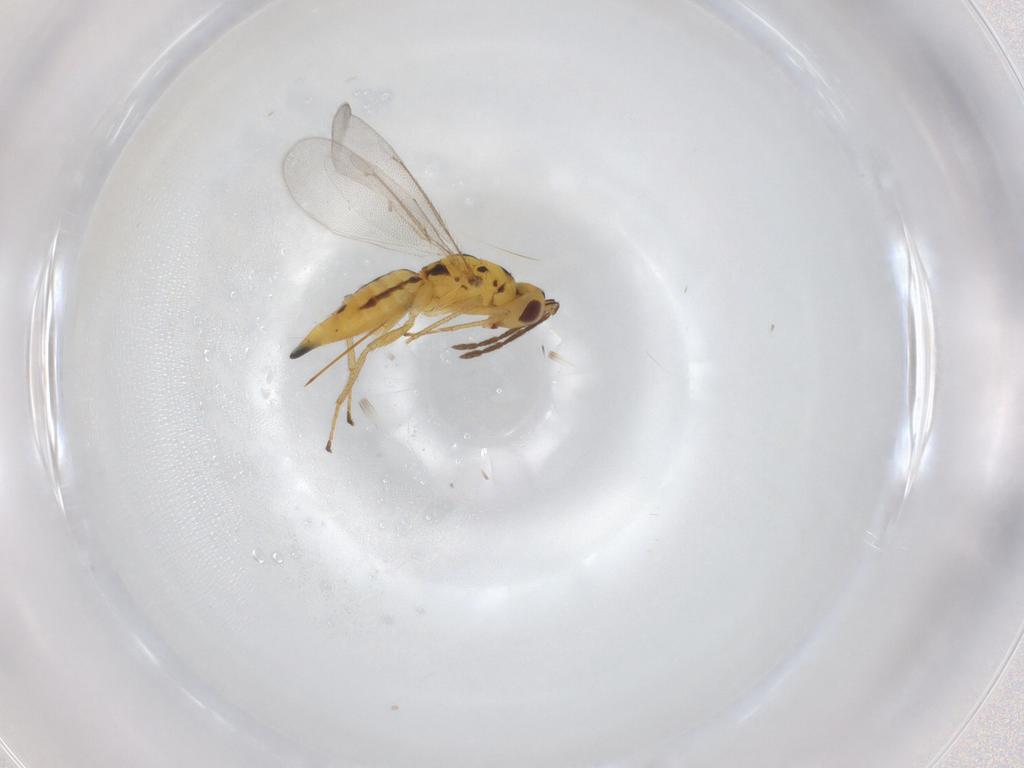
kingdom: Animalia
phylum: Arthropoda
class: Insecta
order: Hymenoptera
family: Eulophidae
